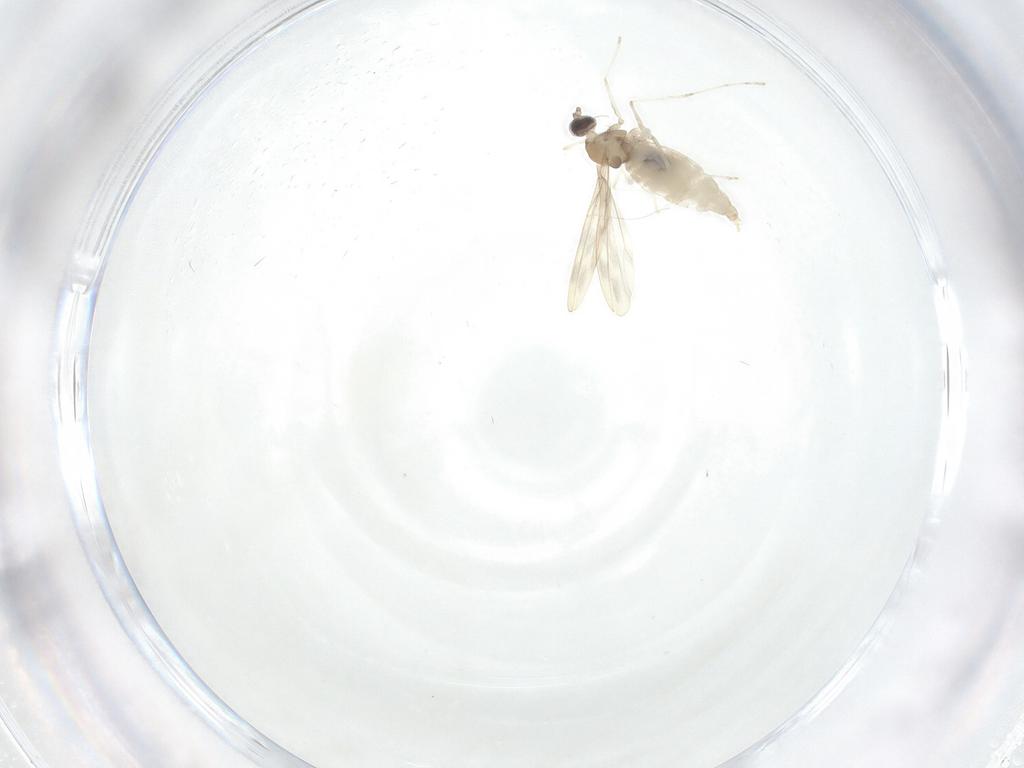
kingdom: Animalia
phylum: Arthropoda
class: Insecta
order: Diptera
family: Cecidomyiidae
